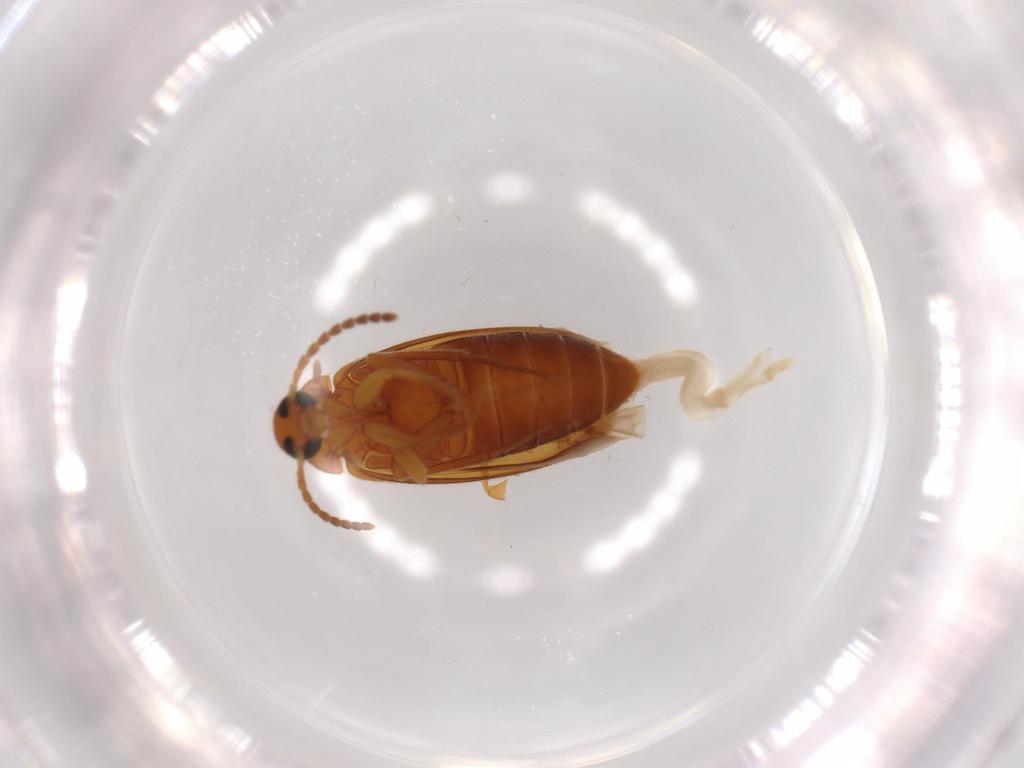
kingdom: Animalia
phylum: Arthropoda
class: Insecta
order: Coleoptera
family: Scraptiidae
